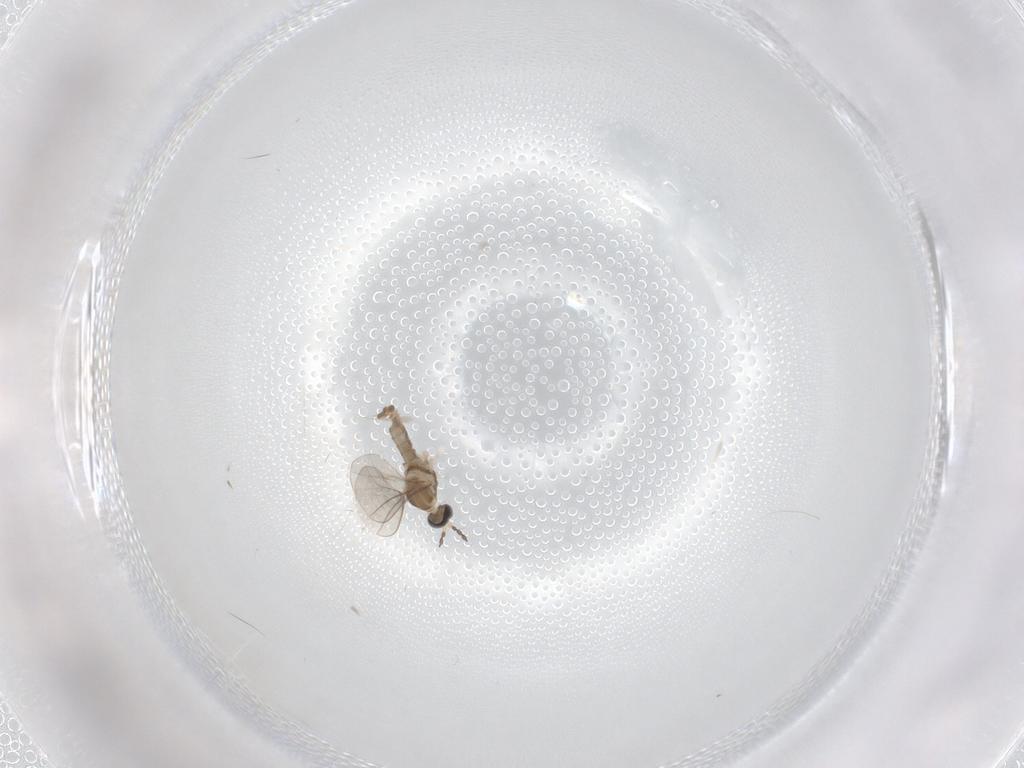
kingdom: Animalia
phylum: Arthropoda
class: Insecta
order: Diptera
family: Cecidomyiidae
